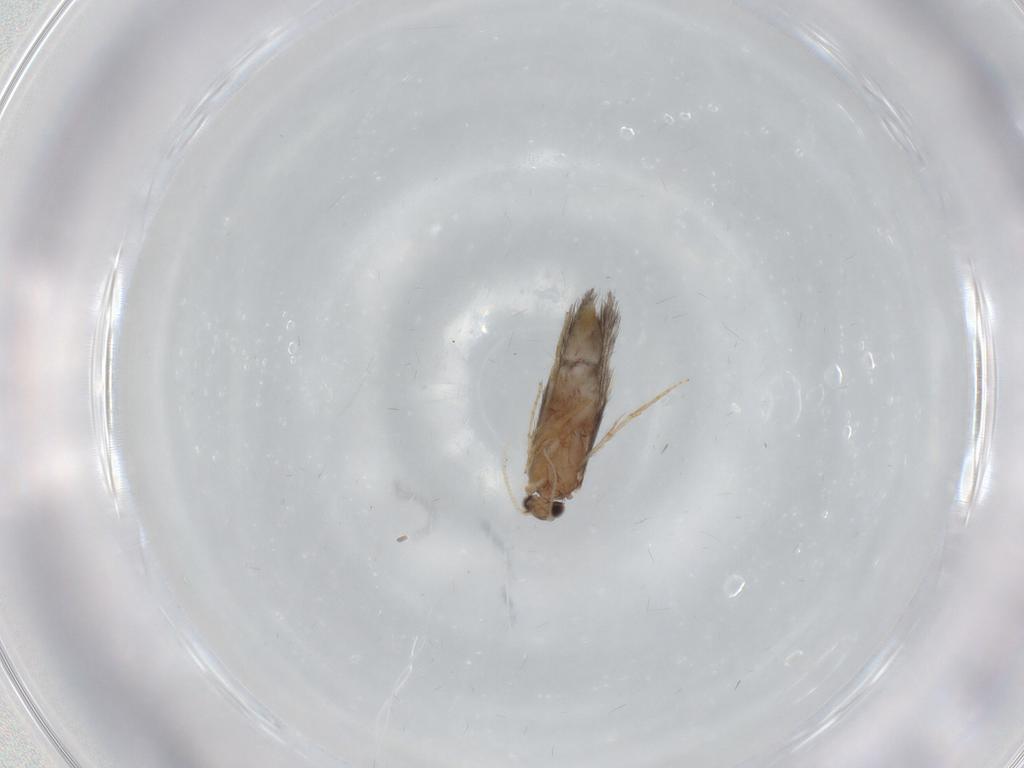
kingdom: Animalia
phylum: Arthropoda
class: Insecta
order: Trichoptera
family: Hydroptilidae
